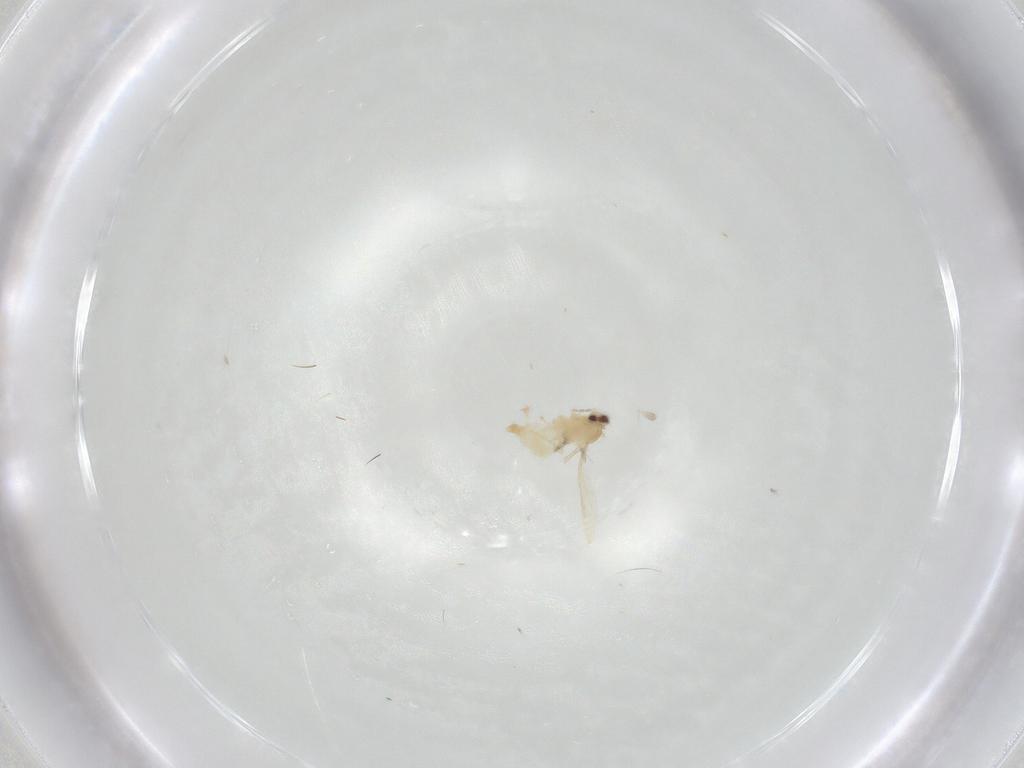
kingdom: Animalia
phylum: Arthropoda
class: Insecta
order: Diptera
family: Cecidomyiidae
